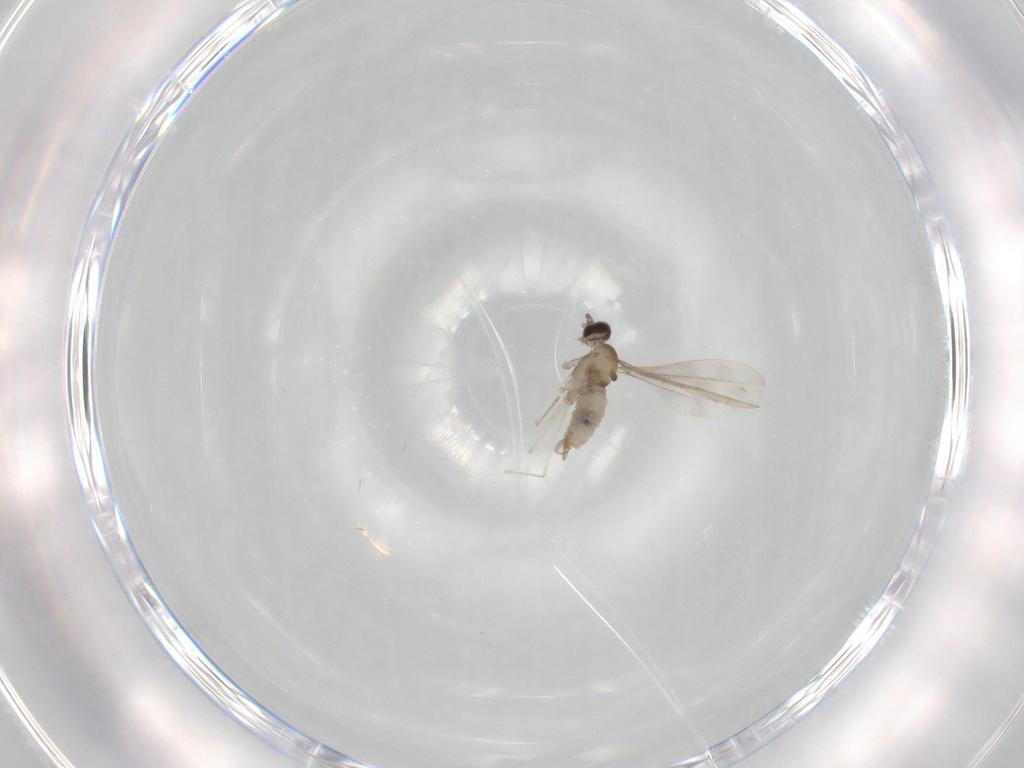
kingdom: Animalia
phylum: Arthropoda
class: Insecta
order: Diptera
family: Cecidomyiidae
